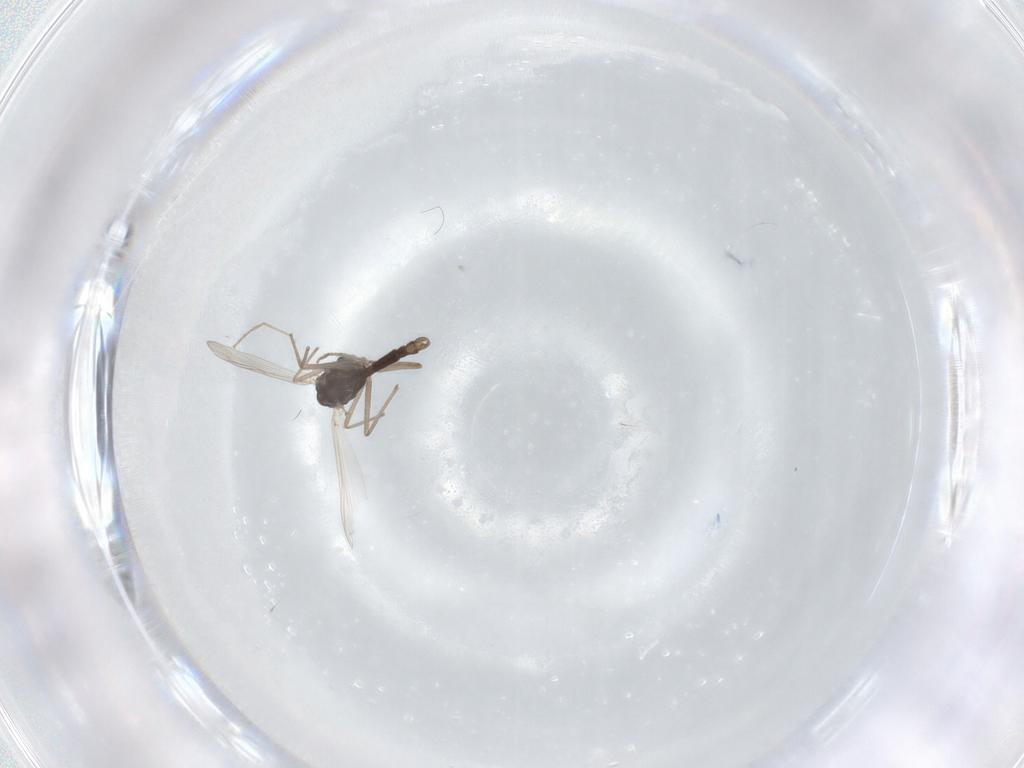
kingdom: Animalia
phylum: Arthropoda
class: Insecta
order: Diptera
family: Chironomidae
